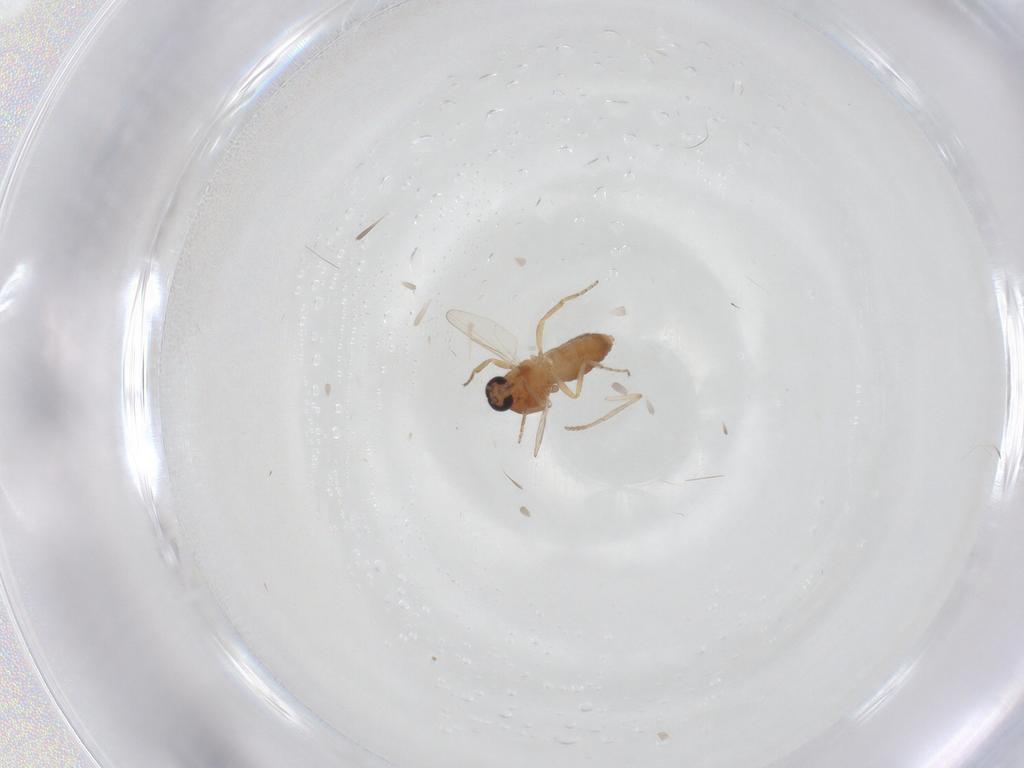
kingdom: Animalia
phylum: Arthropoda
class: Insecta
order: Diptera
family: Ceratopogonidae
